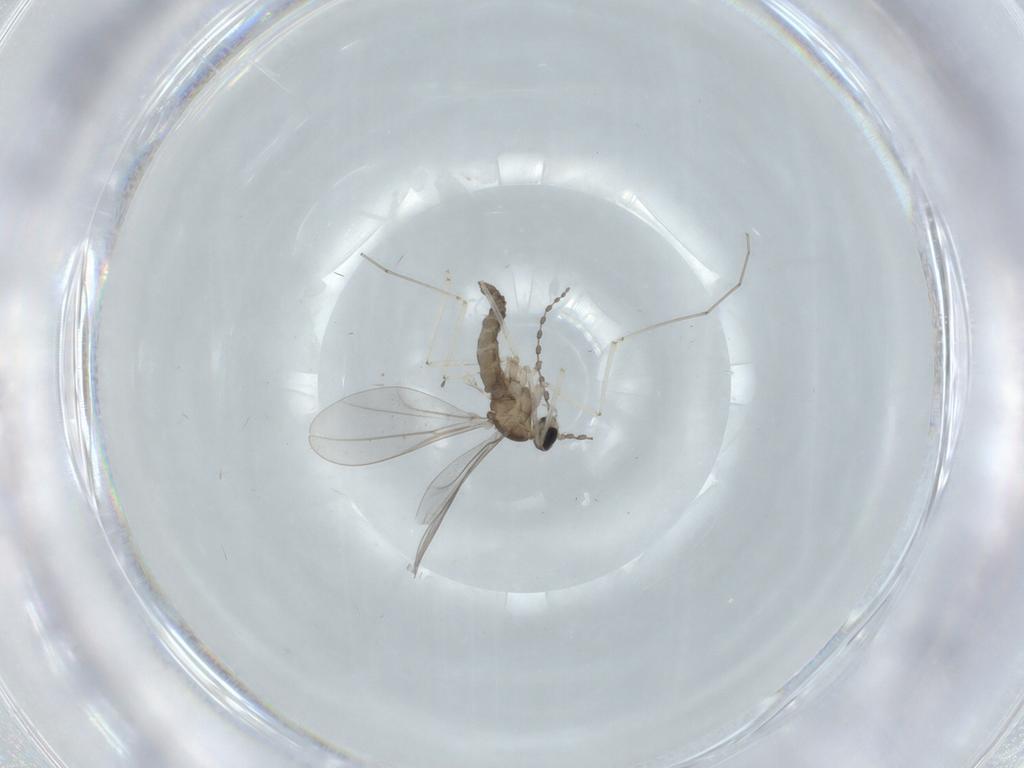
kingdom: Animalia
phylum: Arthropoda
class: Insecta
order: Diptera
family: Cecidomyiidae
